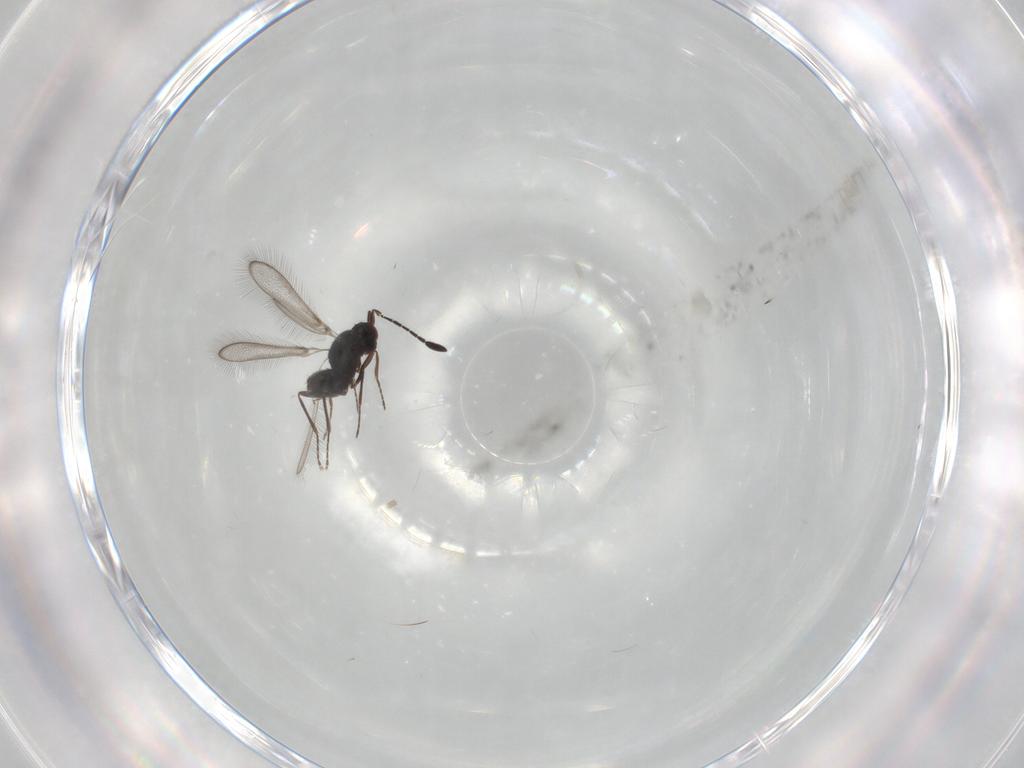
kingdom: Animalia
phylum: Arthropoda
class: Insecta
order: Hymenoptera
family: Mymaridae
